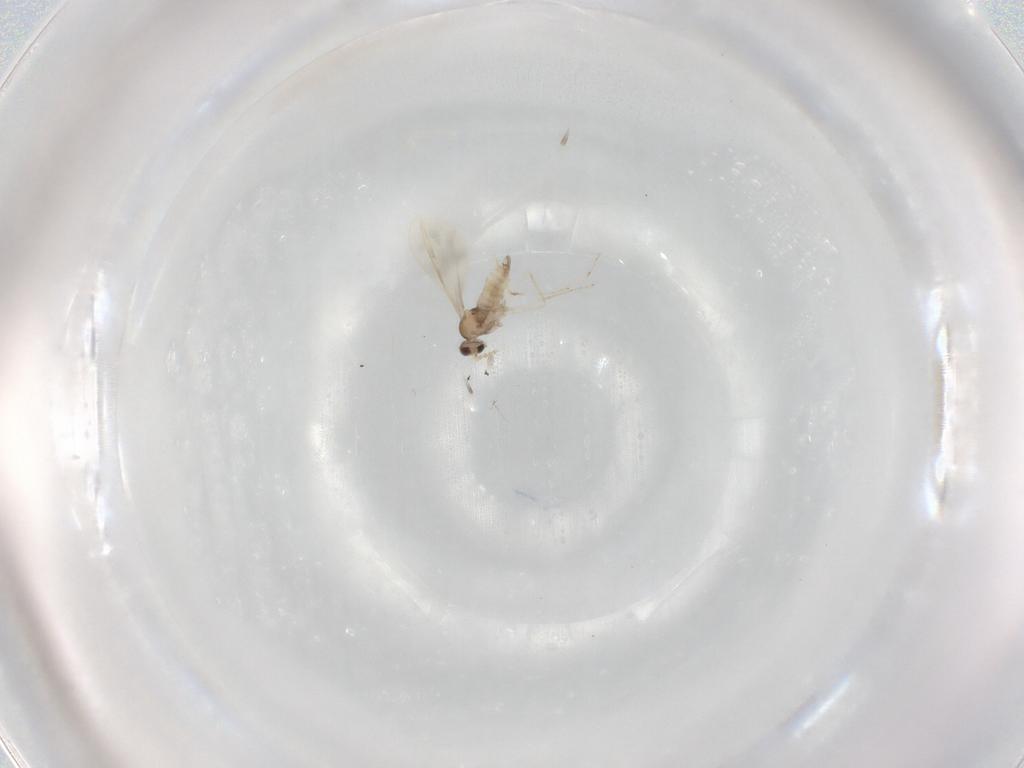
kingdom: Animalia
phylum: Arthropoda
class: Insecta
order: Diptera
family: Cecidomyiidae
